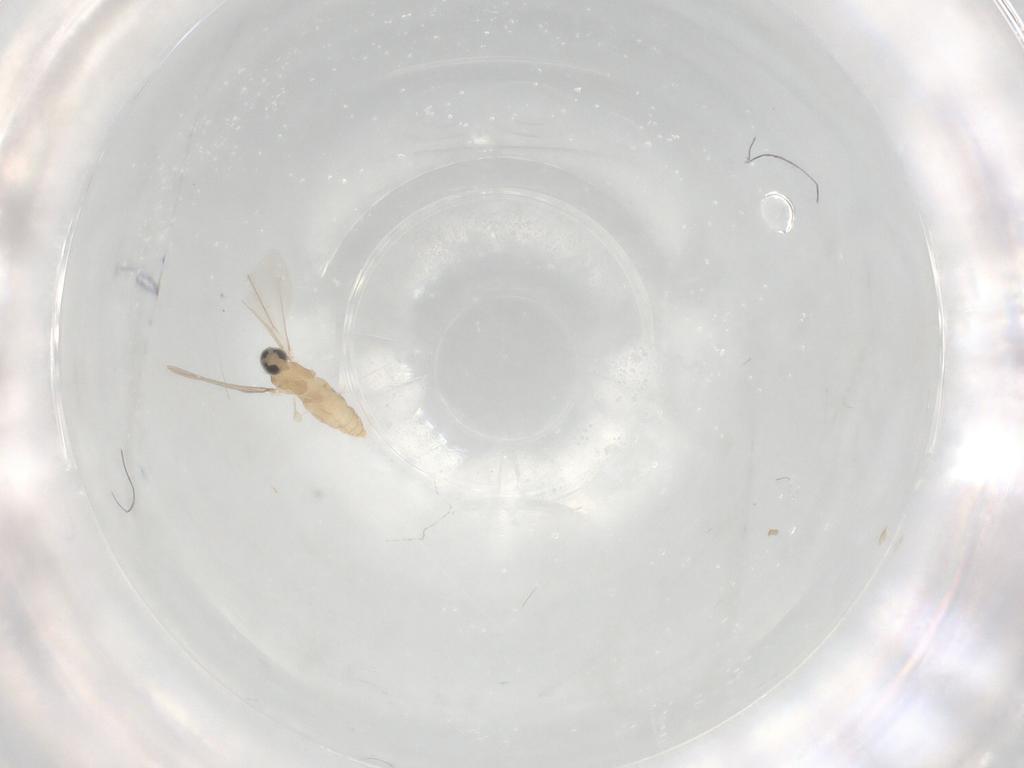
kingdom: Animalia
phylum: Arthropoda
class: Insecta
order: Diptera
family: Cecidomyiidae
